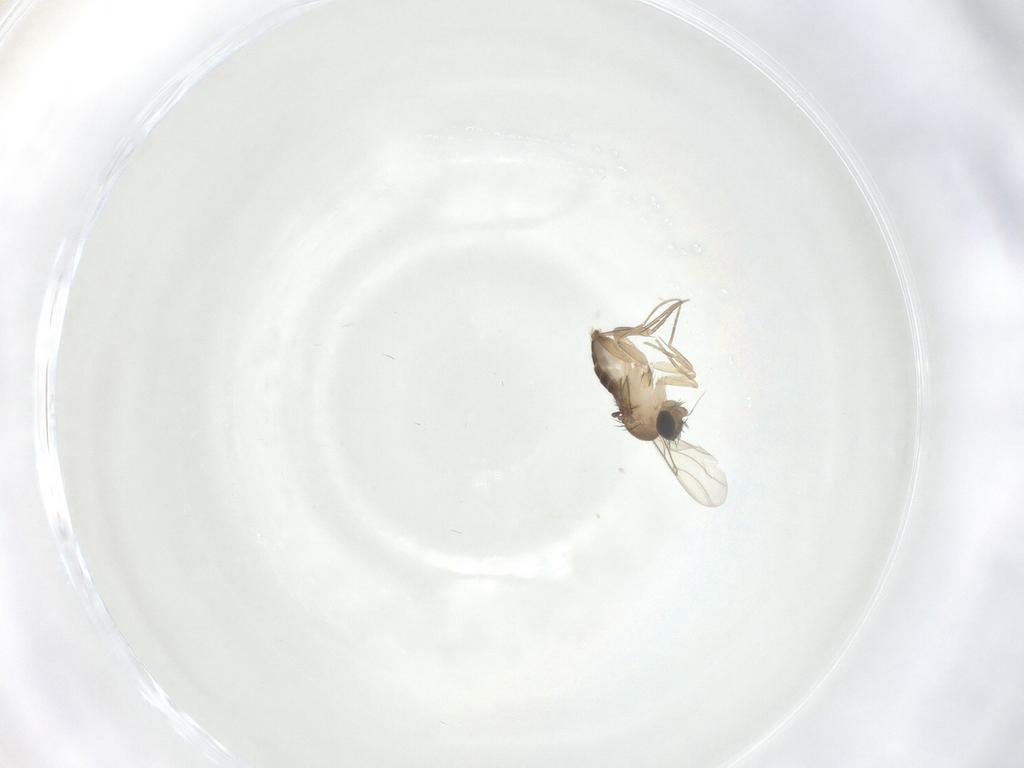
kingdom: Animalia
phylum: Arthropoda
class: Insecta
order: Diptera
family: Phoridae
